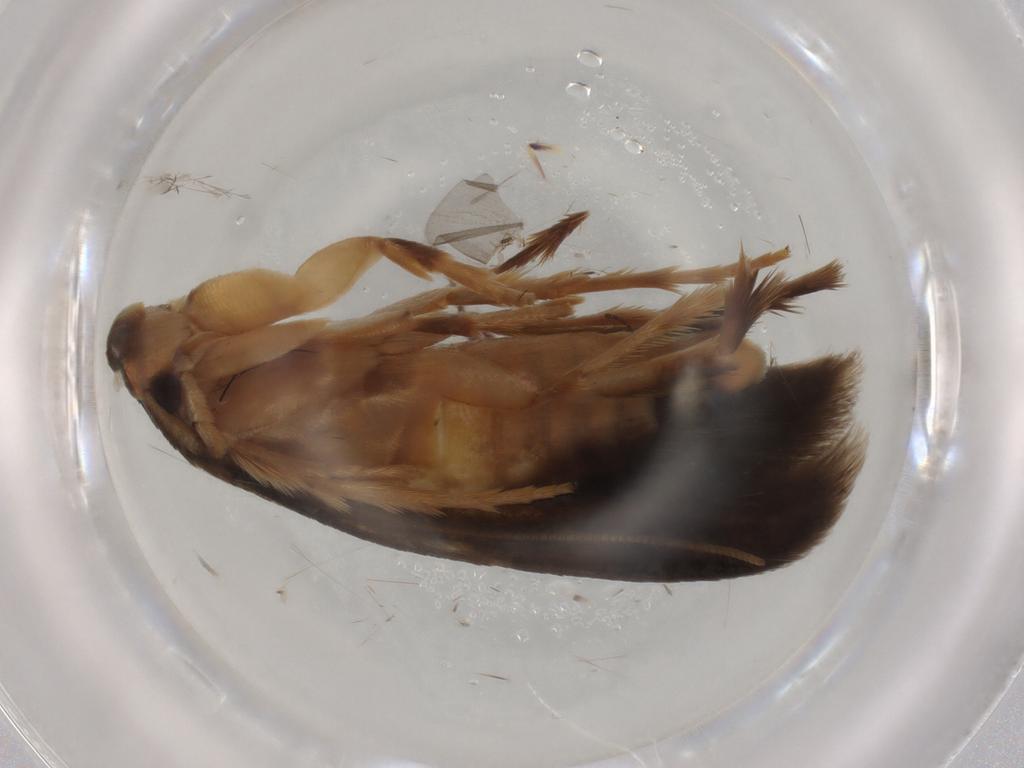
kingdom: Animalia
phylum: Arthropoda
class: Insecta
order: Lepidoptera
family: Tineidae
